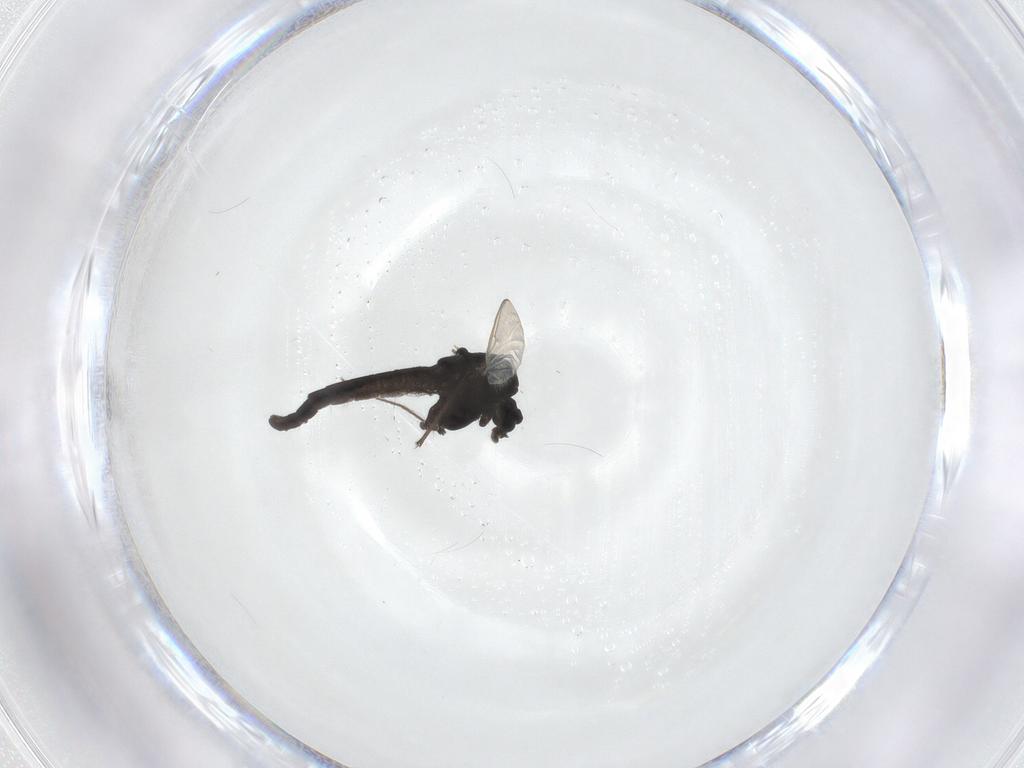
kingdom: Animalia
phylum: Arthropoda
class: Insecta
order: Diptera
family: Chironomidae
